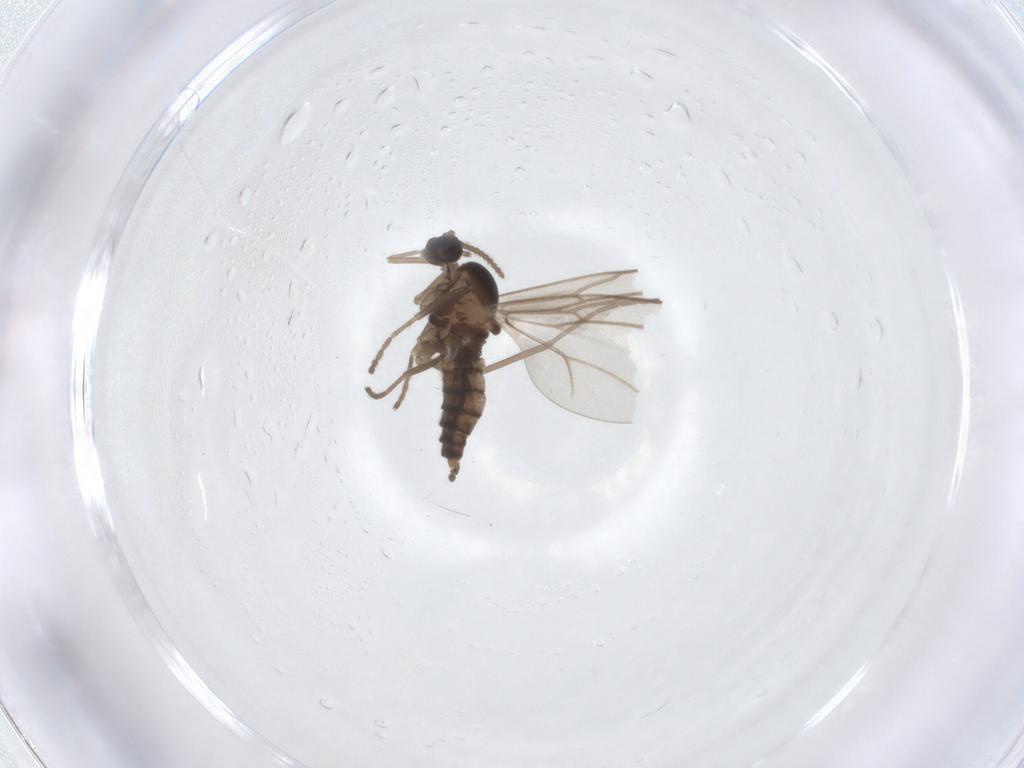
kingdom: Animalia
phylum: Arthropoda
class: Insecta
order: Diptera
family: Cecidomyiidae
